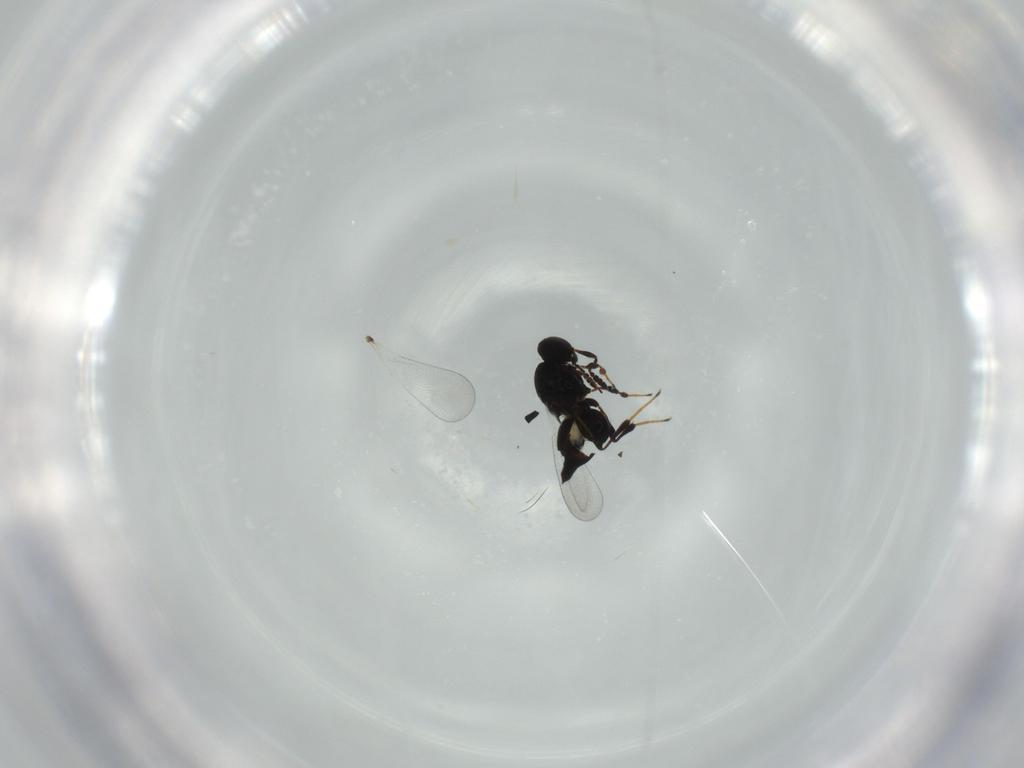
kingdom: Animalia
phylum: Arthropoda
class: Insecta
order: Hymenoptera
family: Platygastridae
